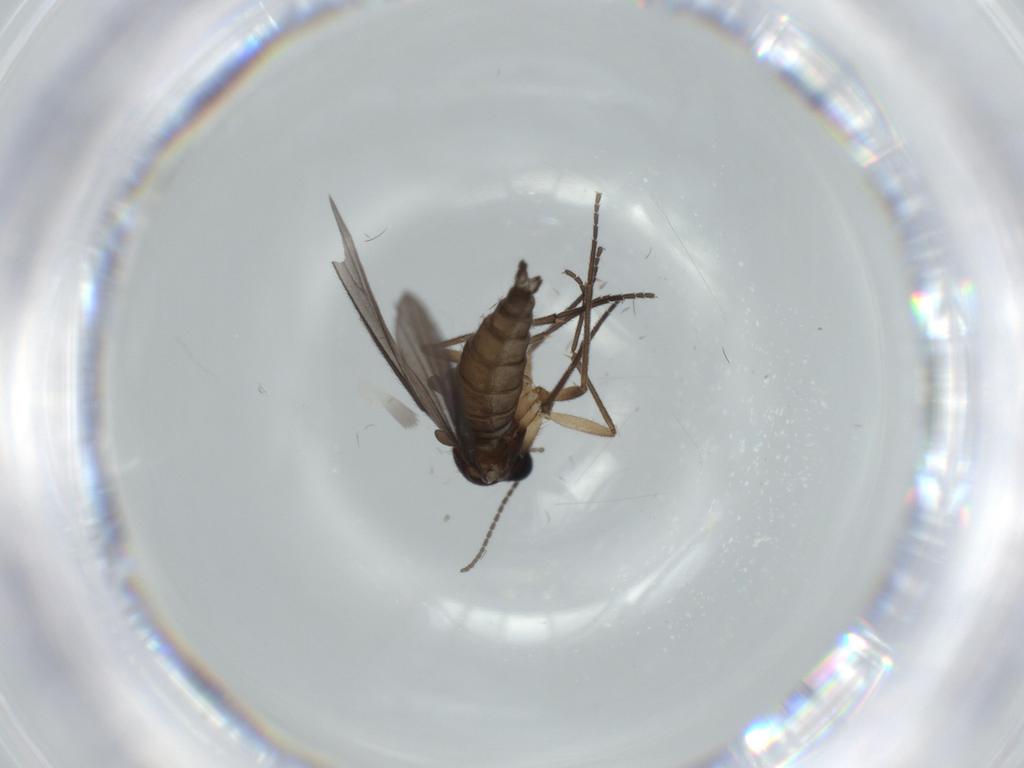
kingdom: Animalia
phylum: Arthropoda
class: Insecta
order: Diptera
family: Sciaridae
